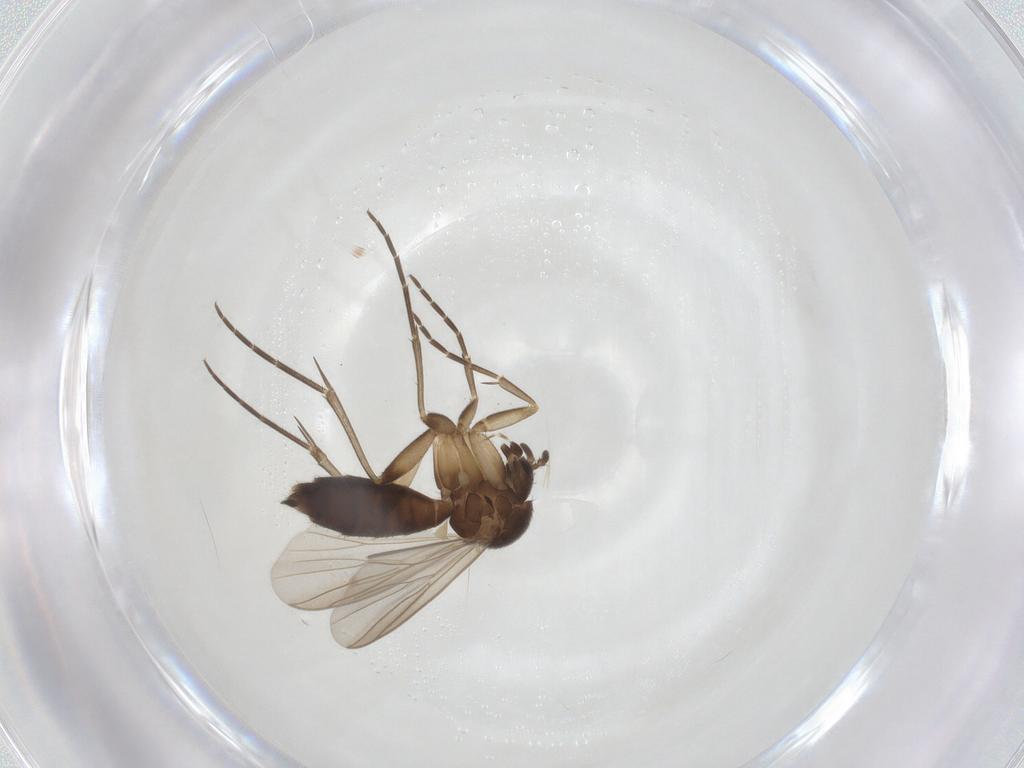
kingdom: Animalia
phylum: Arthropoda
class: Insecta
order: Diptera
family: Mycetophilidae
